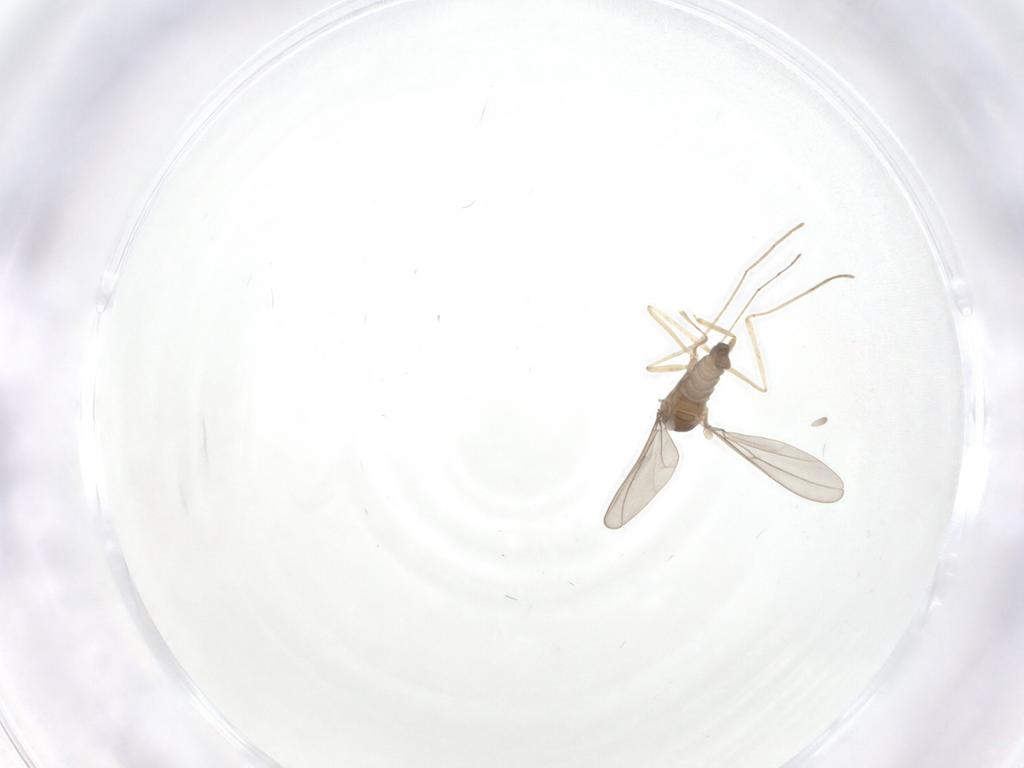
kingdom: Animalia
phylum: Arthropoda
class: Insecta
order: Diptera
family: Cecidomyiidae
